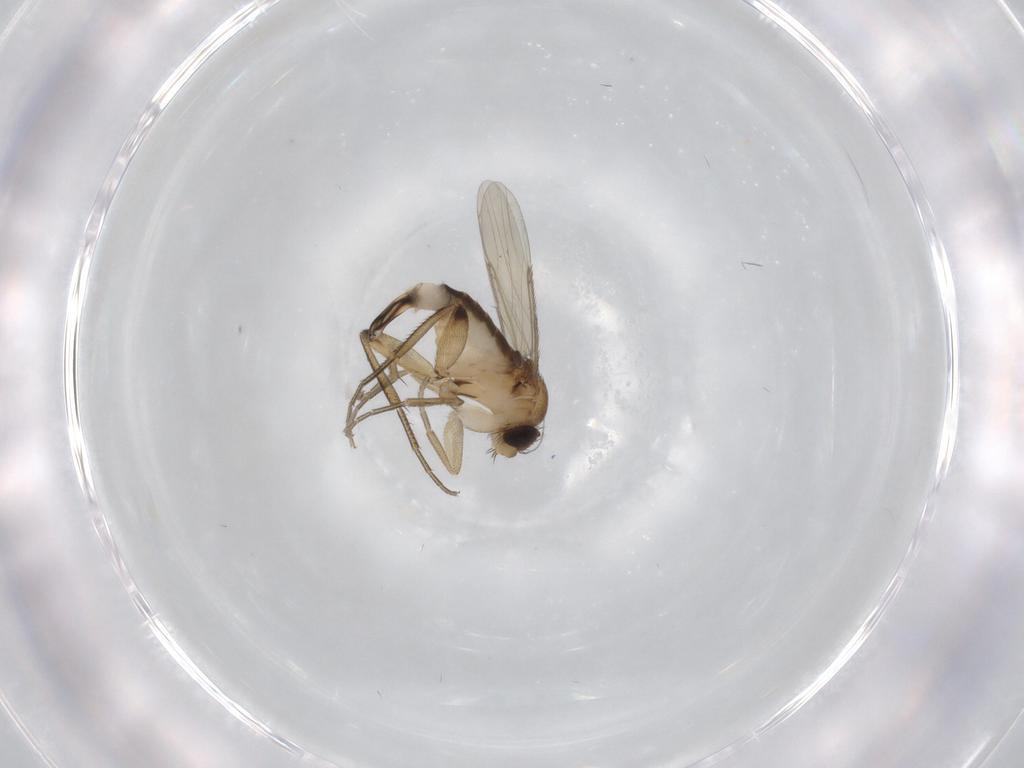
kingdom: Animalia
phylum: Arthropoda
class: Insecta
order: Diptera
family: Phoridae
